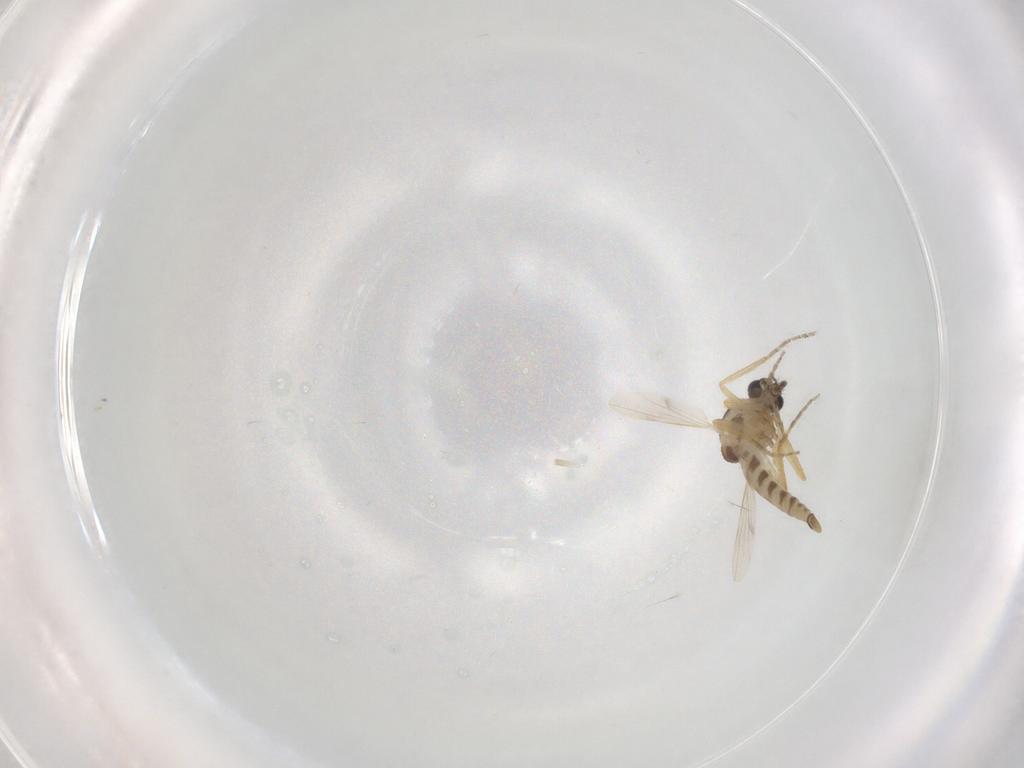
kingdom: Animalia
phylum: Arthropoda
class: Insecta
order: Diptera
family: Ceratopogonidae
